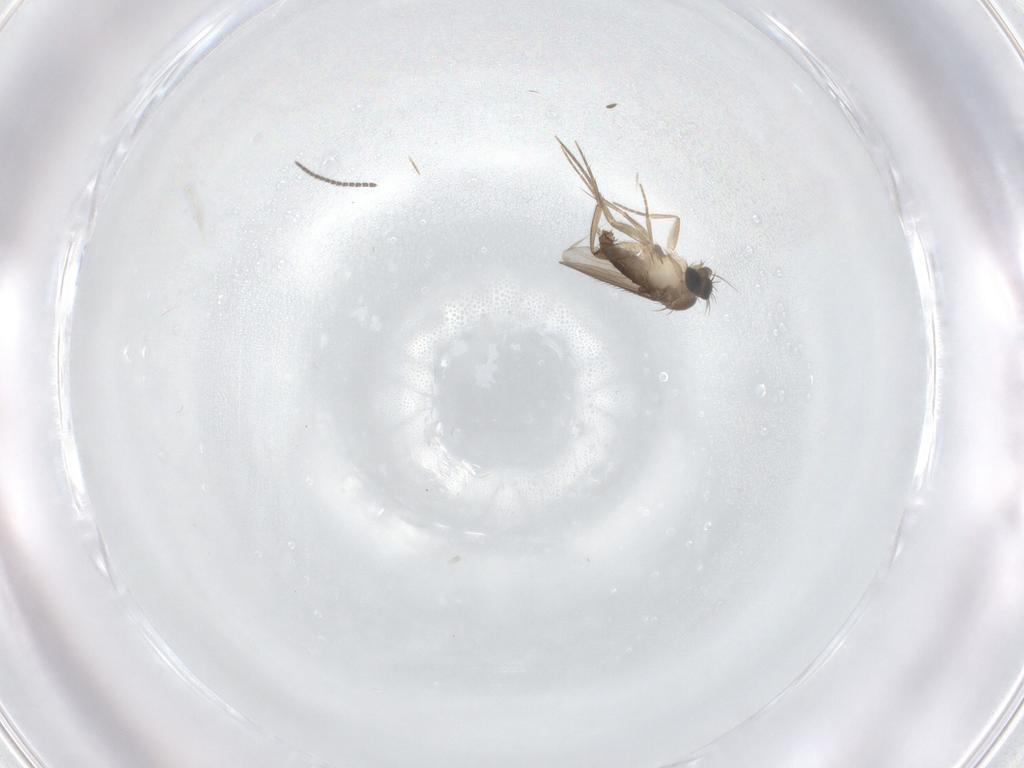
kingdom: Animalia
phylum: Arthropoda
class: Insecta
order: Diptera
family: Phoridae
